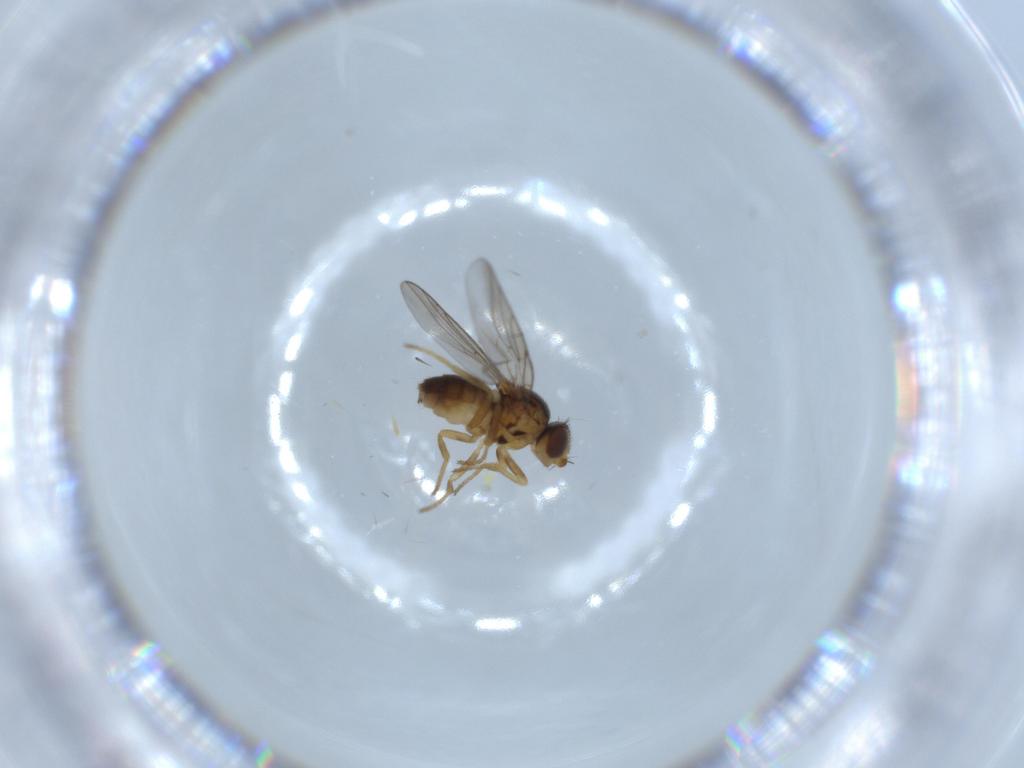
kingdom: Animalia
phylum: Arthropoda
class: Insecta
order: Diptera
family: Chloropidae
